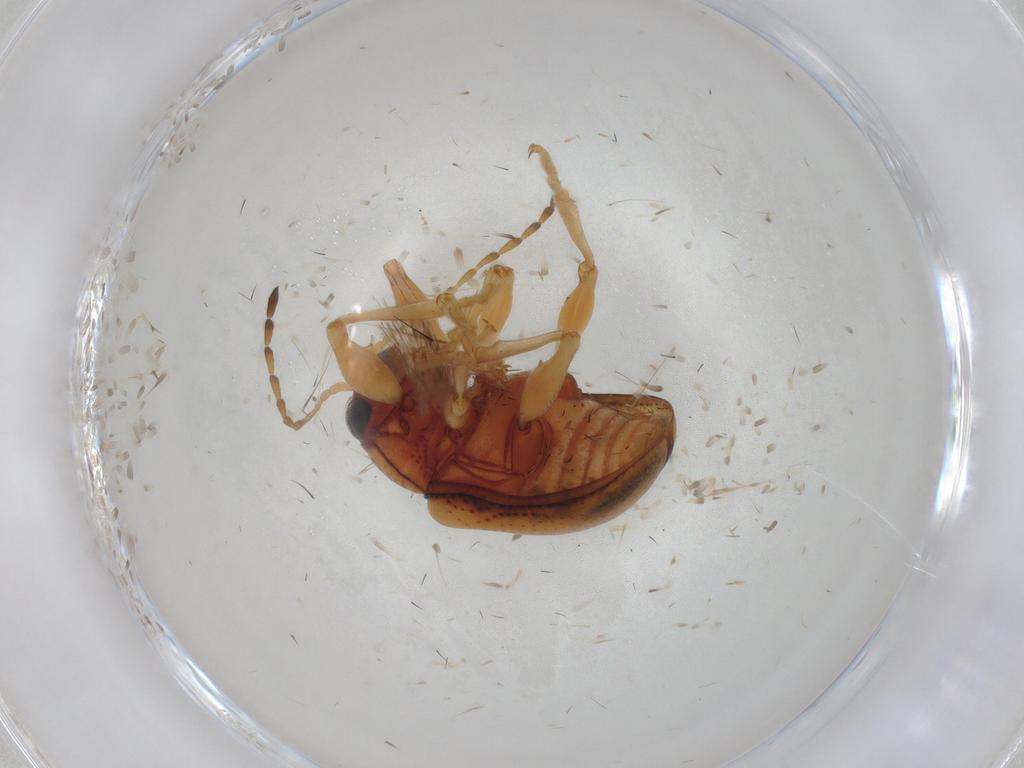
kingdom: Animalia
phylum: Arthropoda
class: Insecta
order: Coleoptera
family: Chrysomelidae
